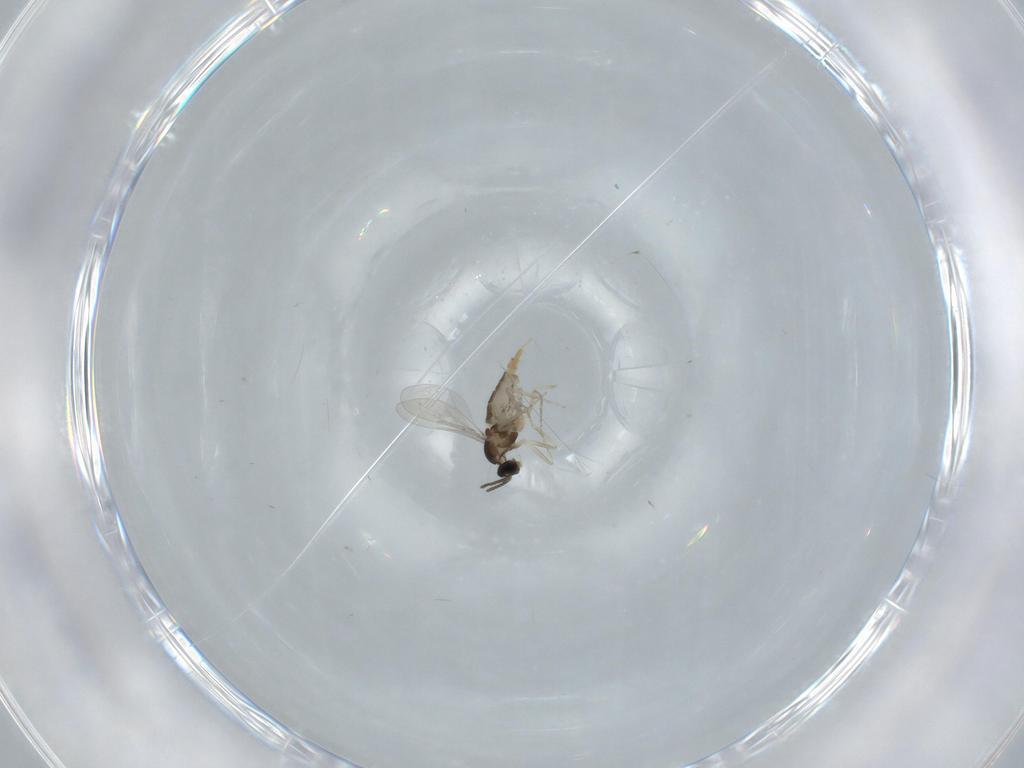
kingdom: Animalia
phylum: Arthropoda
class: Insecta
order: Diptera
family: Cecidomyiidae
